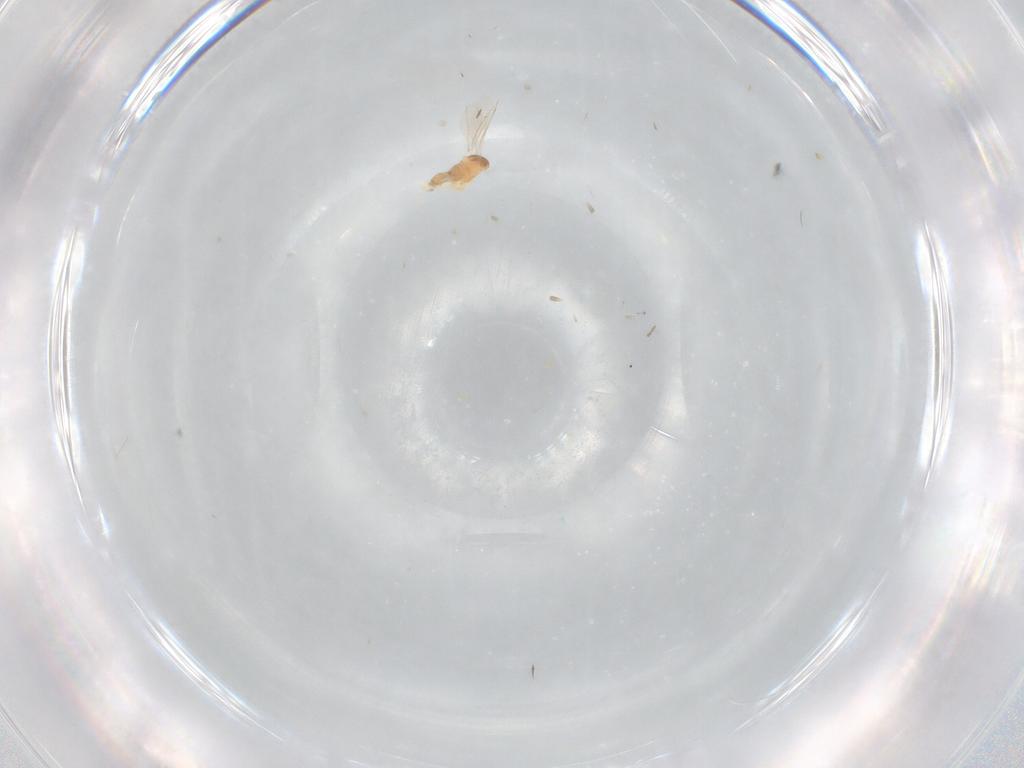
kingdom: Animalia
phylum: Arthropoda
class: Insecta
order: Diptera
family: Cecidomyiidae
